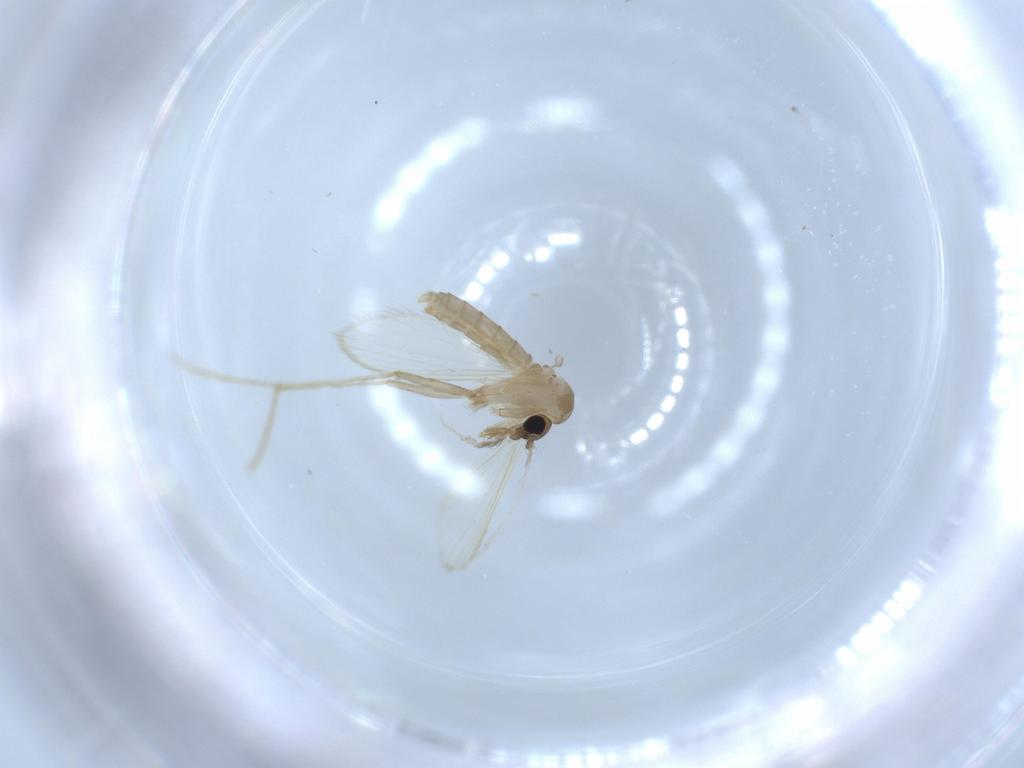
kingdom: Animalia
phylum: Arthropoda
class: Insecta
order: Diptera
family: Psychodidae
